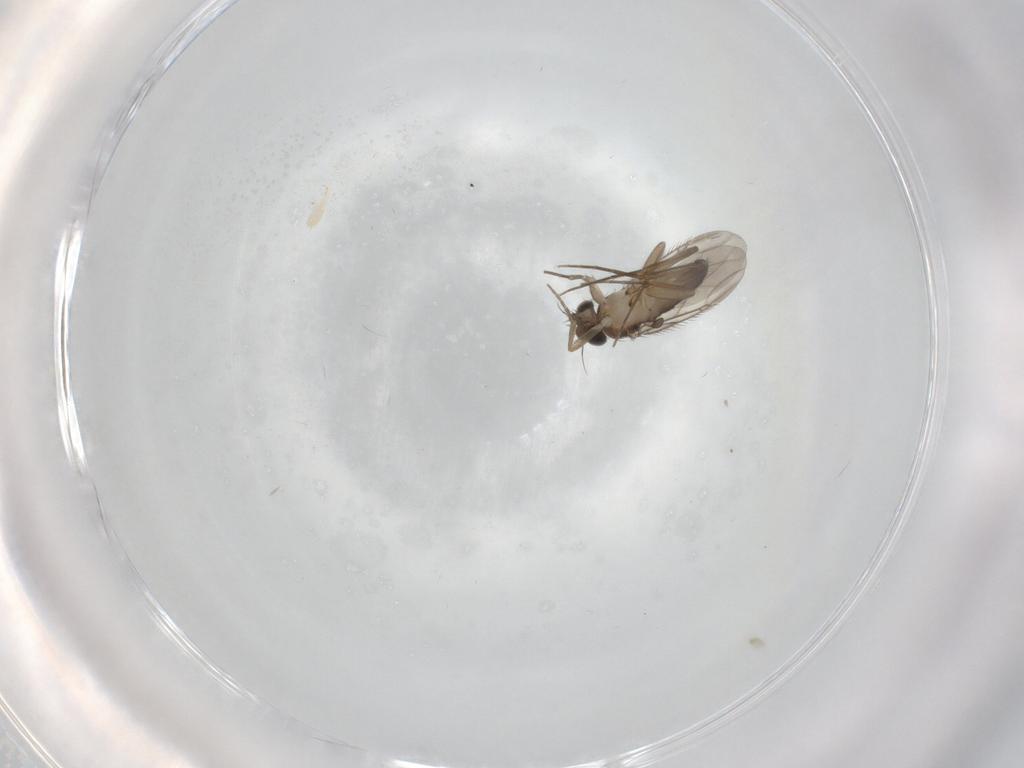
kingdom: Animalia
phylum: Arthropoda
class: Insecta
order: Diptera
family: Phoridae
